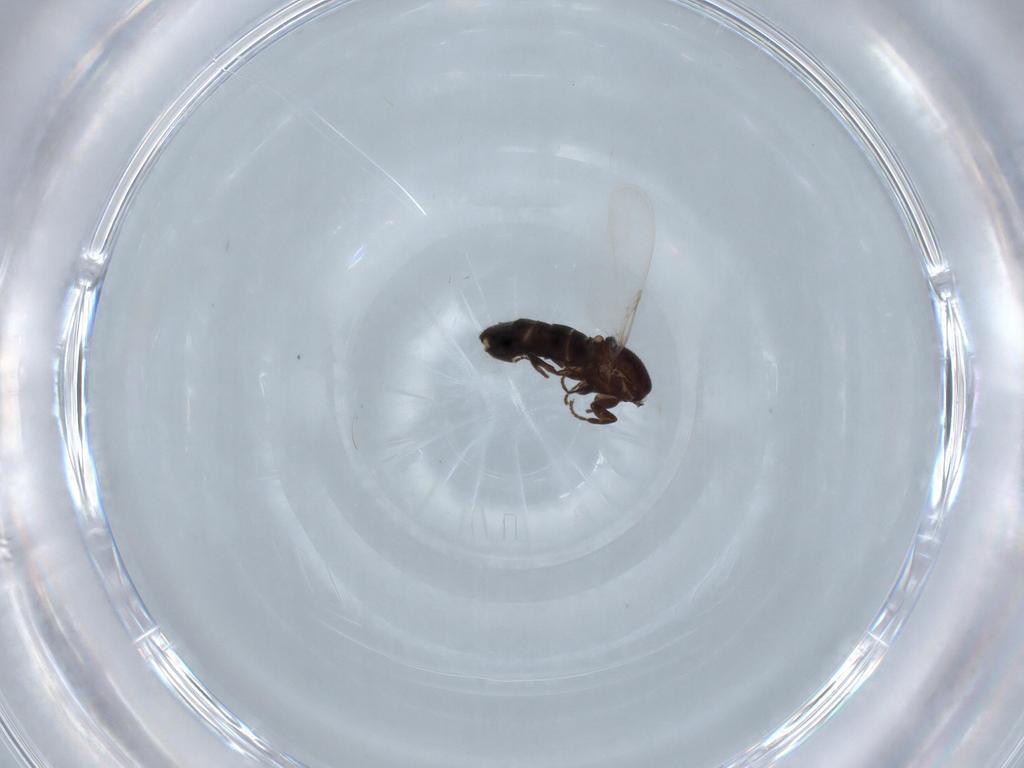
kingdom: Animalia
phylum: Arthropoda
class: Insecta
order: Diptera
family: Scatopsidae
